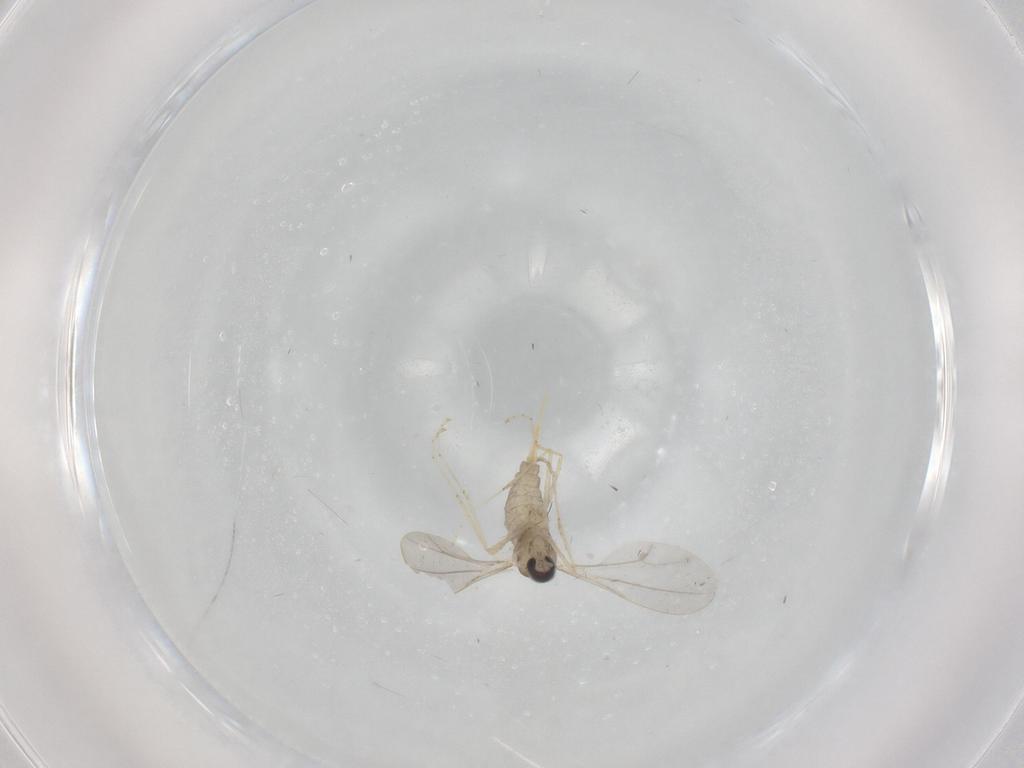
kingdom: Animalia
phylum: Arthropoda
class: Insecta
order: Diptera
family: Cecidomyiidae
